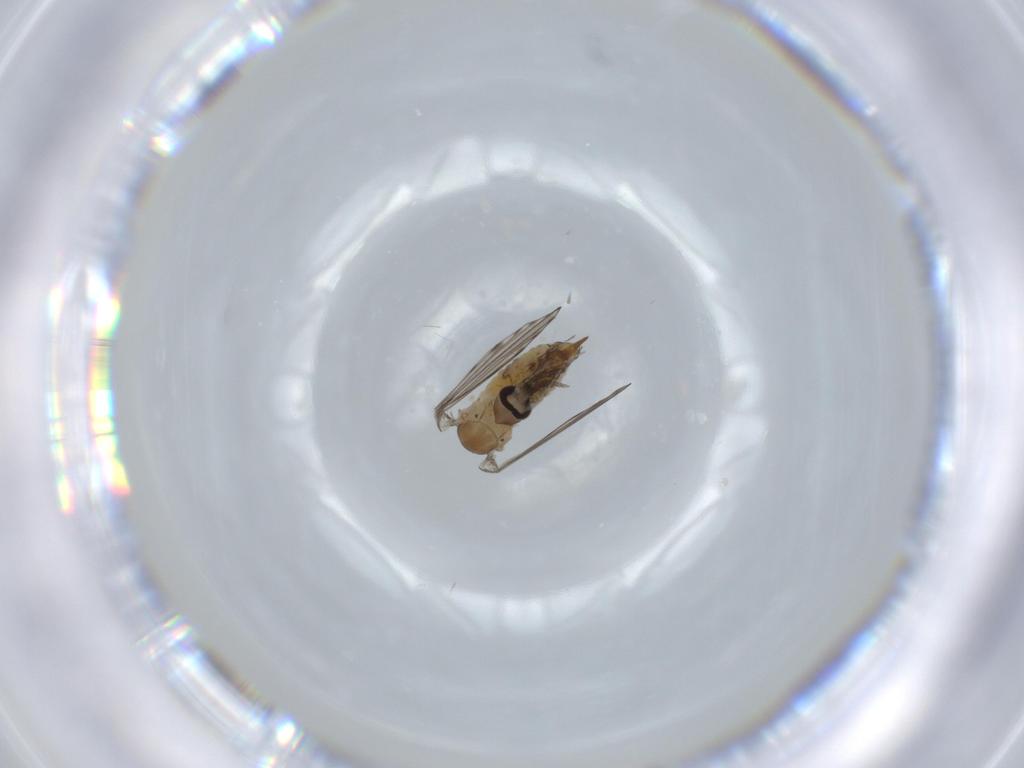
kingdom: Animalia
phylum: Arthropoda
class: Insecta
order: Diptera
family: Psychodidae
